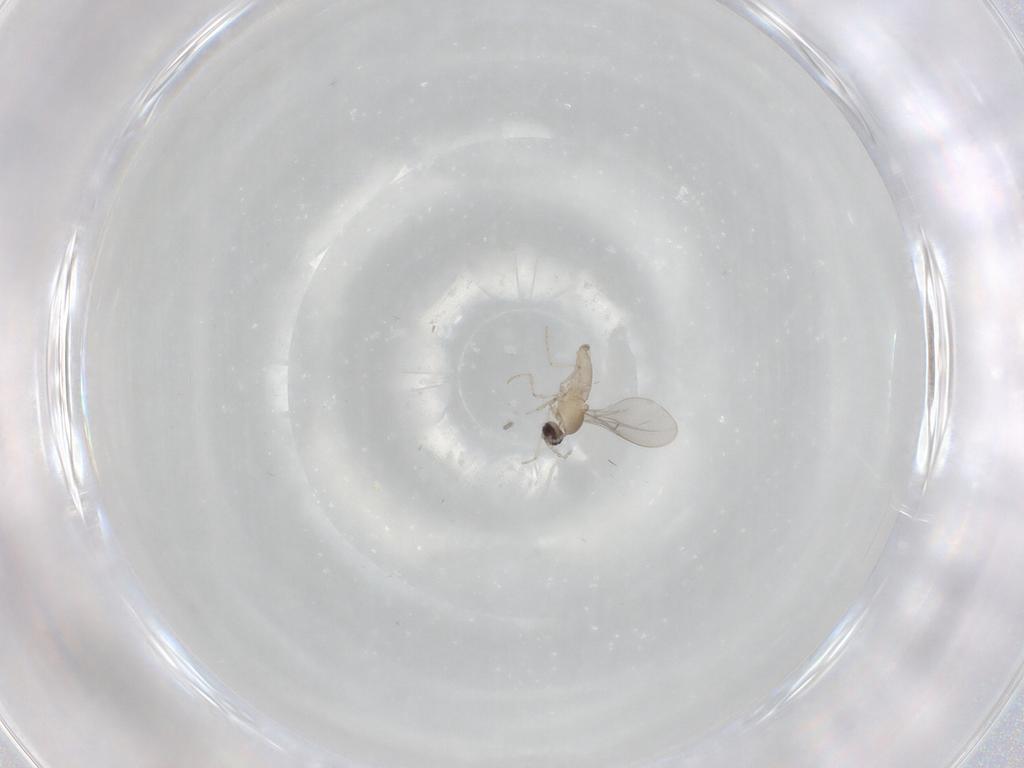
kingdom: Animalia
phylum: Arthropoda
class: Insecta
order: Diptera
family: Cecidomyiidae
